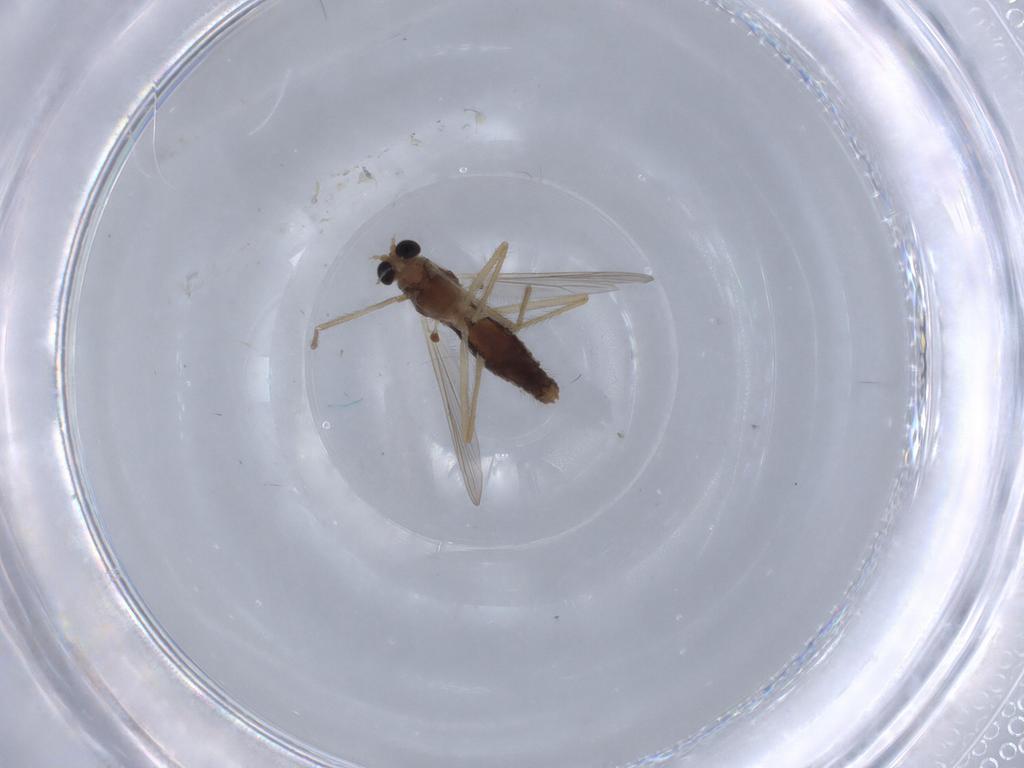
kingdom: Animalia
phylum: Arthropoda
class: Insecta
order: Diptera
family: Chironomidae
